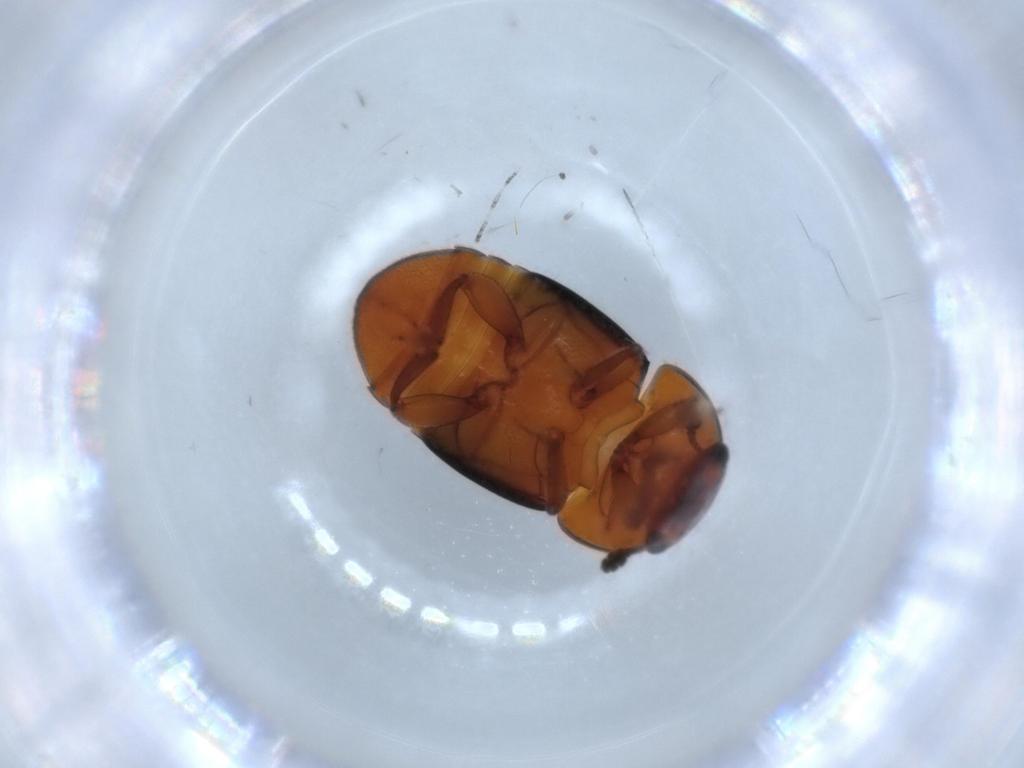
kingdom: Animalia
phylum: Arthropoda
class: Insecta
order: Coleoptera
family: Nitidulidae
